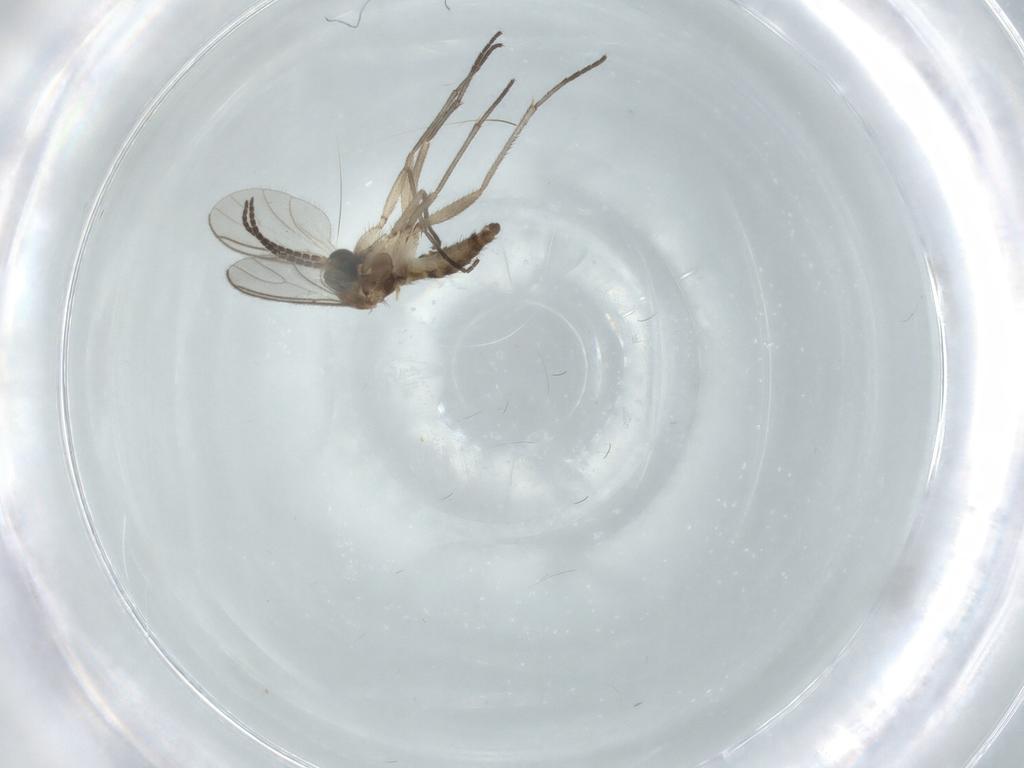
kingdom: Animalia
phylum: Arthropoda
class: Insecta
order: Diptera
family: Sciaridae
